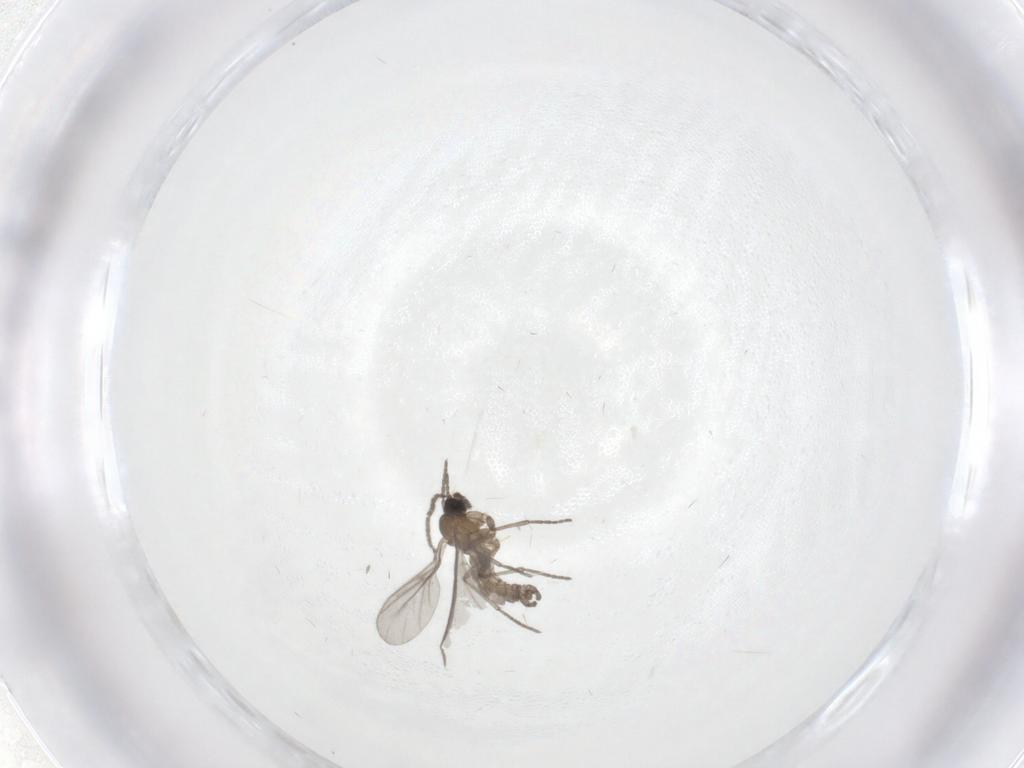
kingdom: Animalia
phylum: Arthropoda
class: Insecta
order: Diptera
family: Sciaridae
